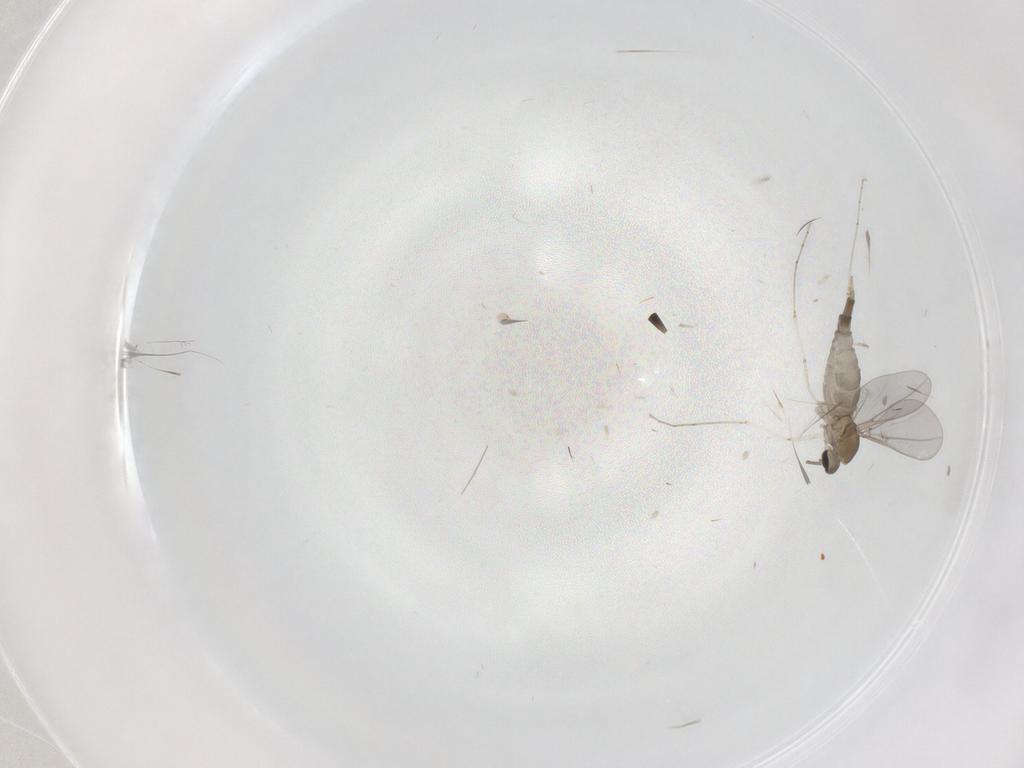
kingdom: Animalia
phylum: Arthropoda
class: Insecta
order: Diptera
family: Cecidomyiidae
